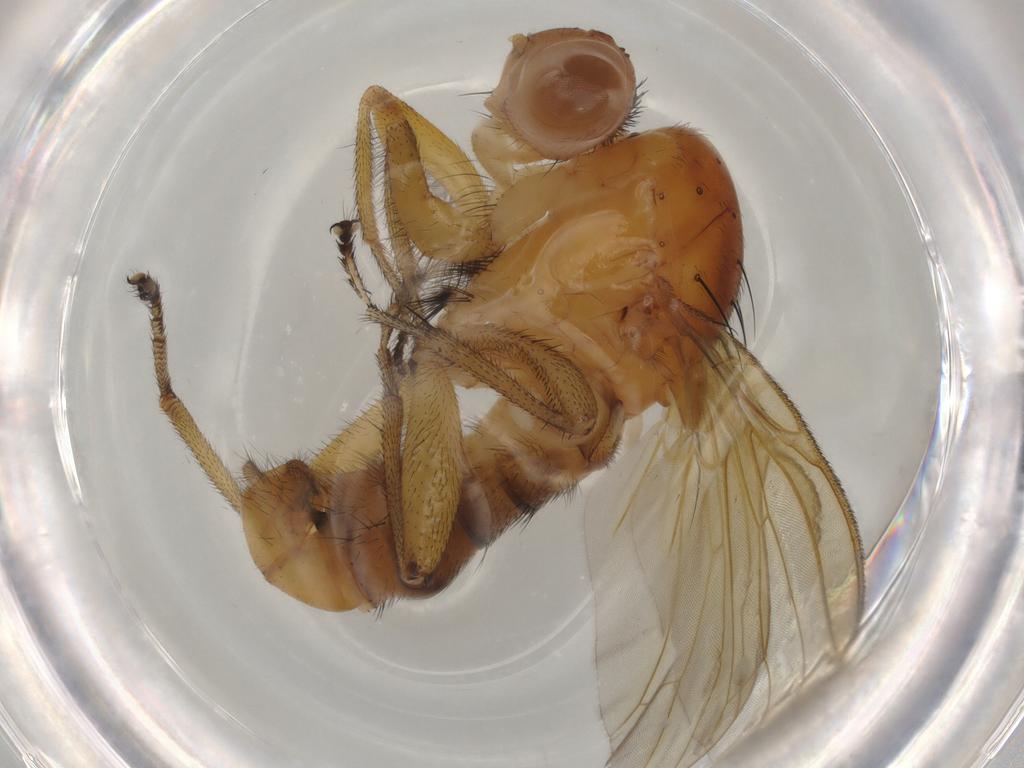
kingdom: Animalia
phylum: Arthropoda
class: Insecta
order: Diptera
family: Heleomyzidae
